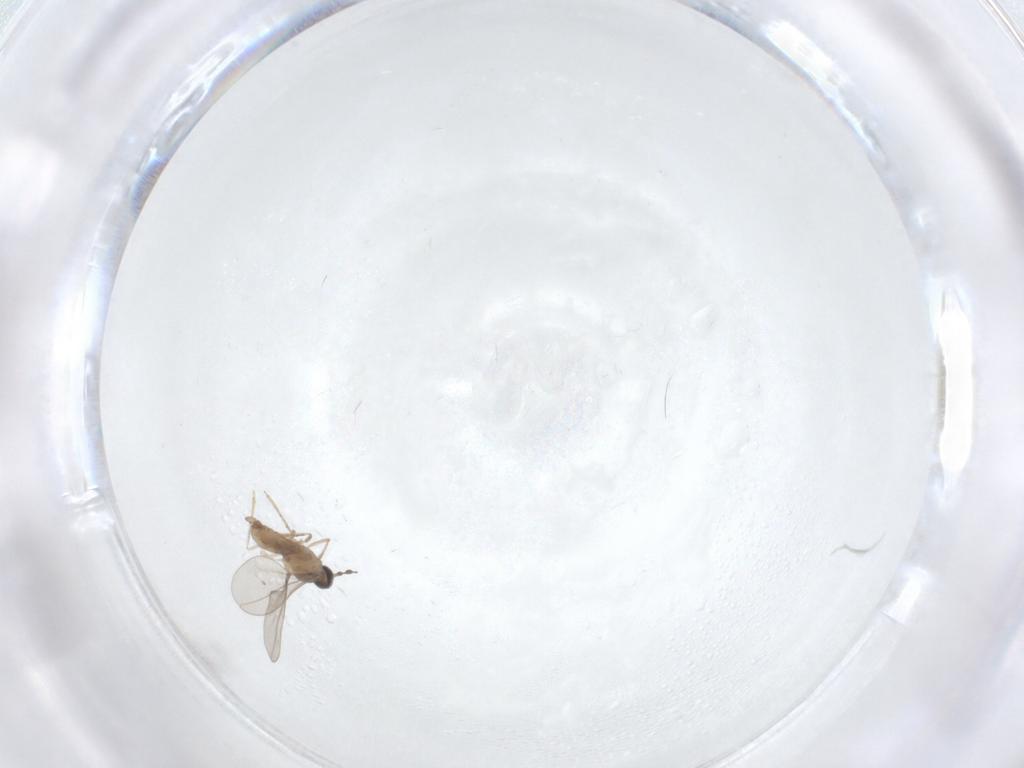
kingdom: Animalia
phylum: Arthropoda
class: Insecta
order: Diptera
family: Cecidomyiidae
